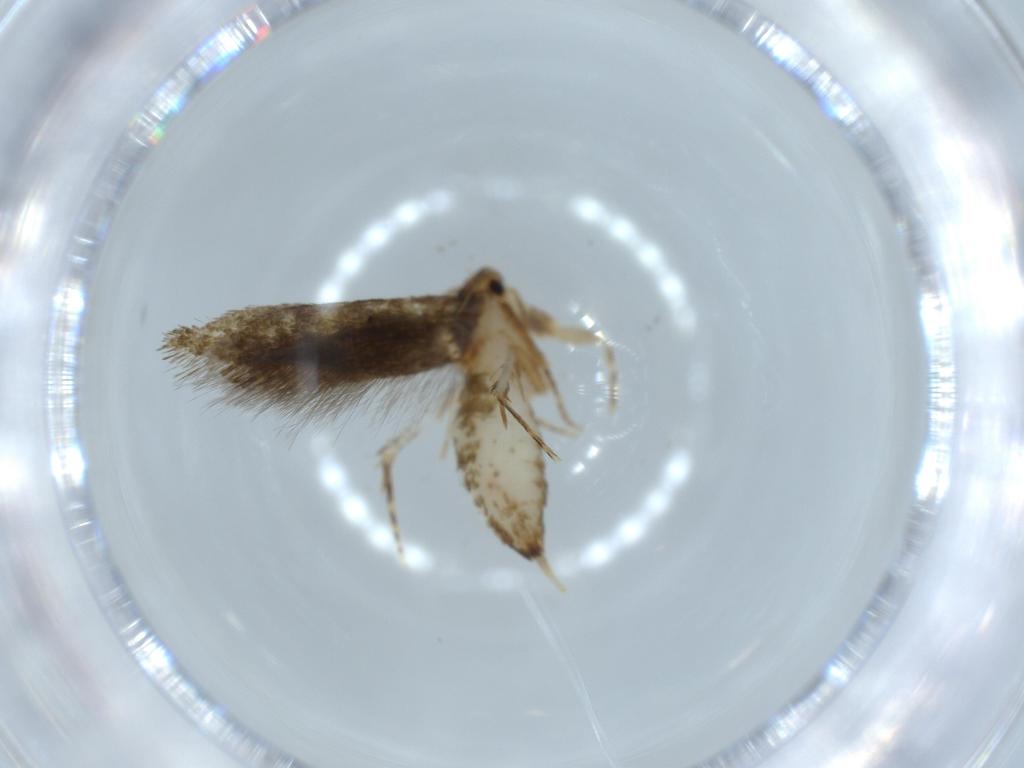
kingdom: Animalia
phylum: Arthropoda
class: Insecta
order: Lepidoptera
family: Tineidae
